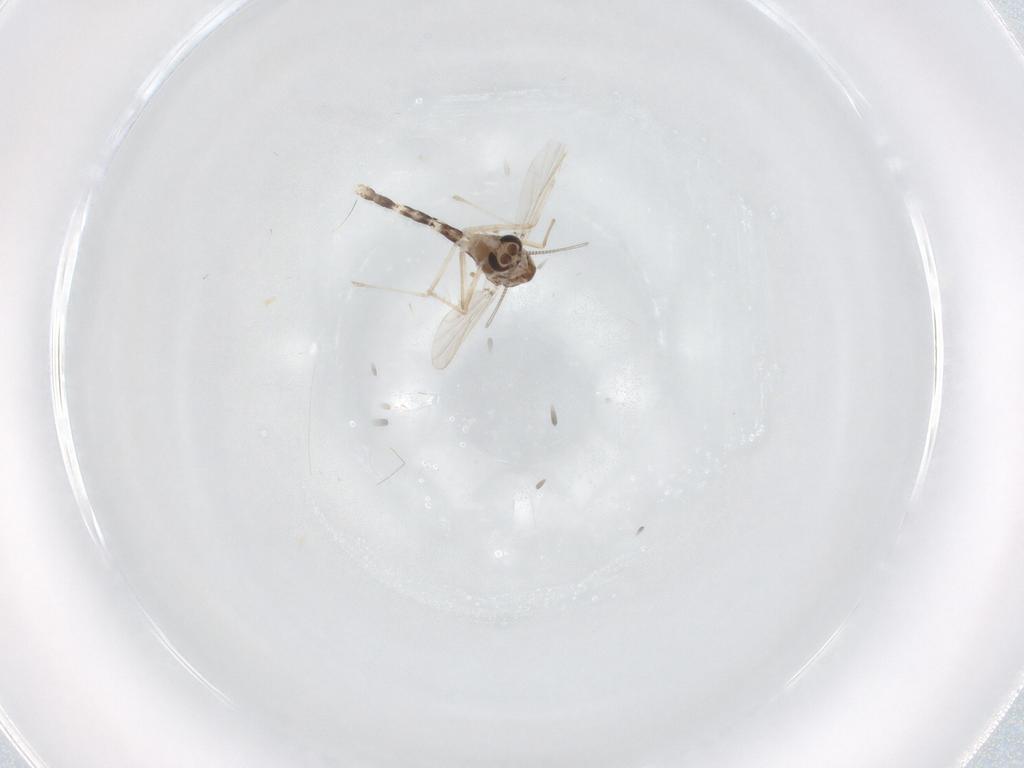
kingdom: Animalia
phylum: Arthropoda
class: Insecta
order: Diptera
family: Chironomidae
